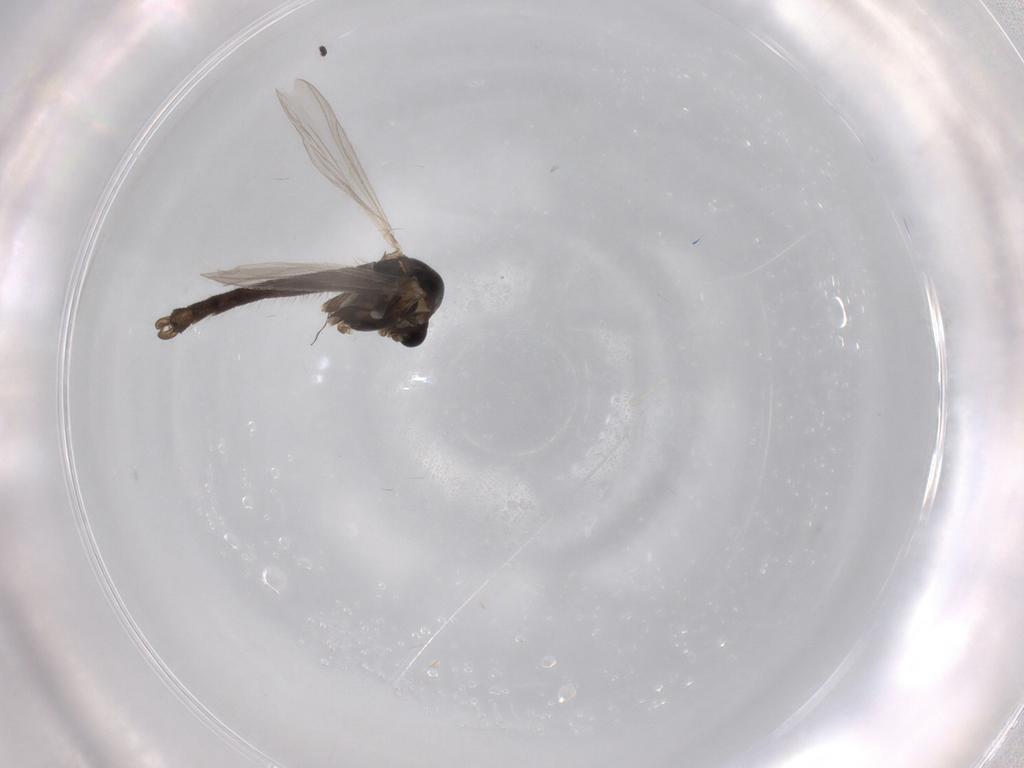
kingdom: Animalia
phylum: Arthropoda
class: Insecta
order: Diptera
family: Chironomidae
